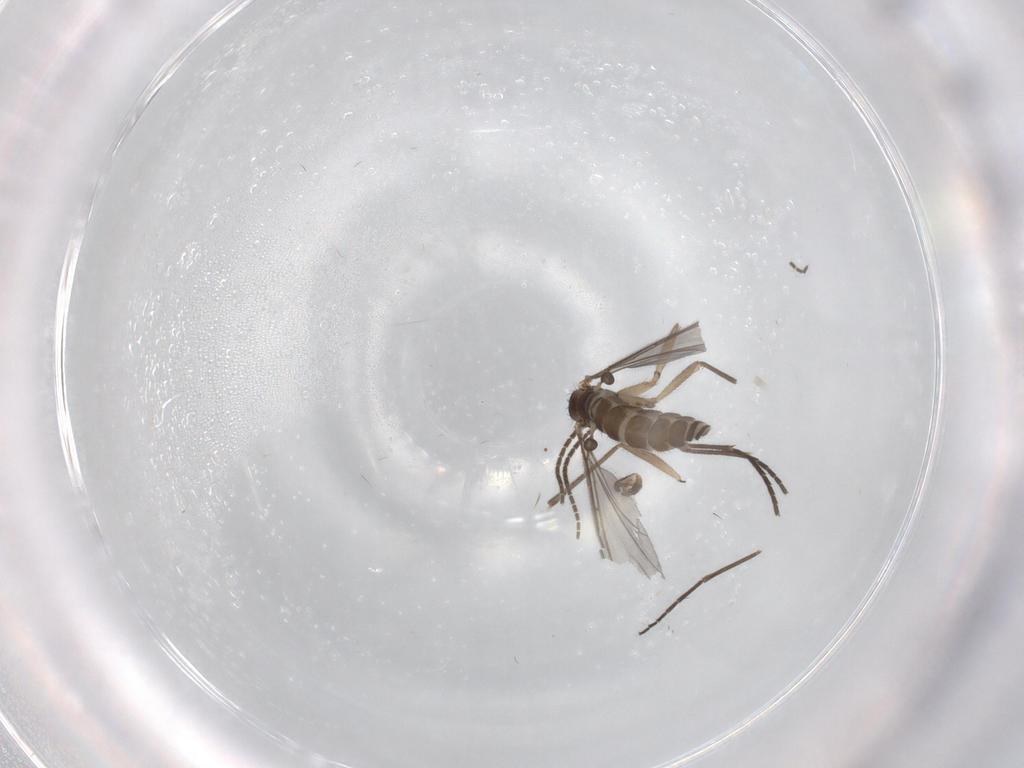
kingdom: Animalia
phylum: Arthropoda
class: Insecta
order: Diptera
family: Sciaridae
